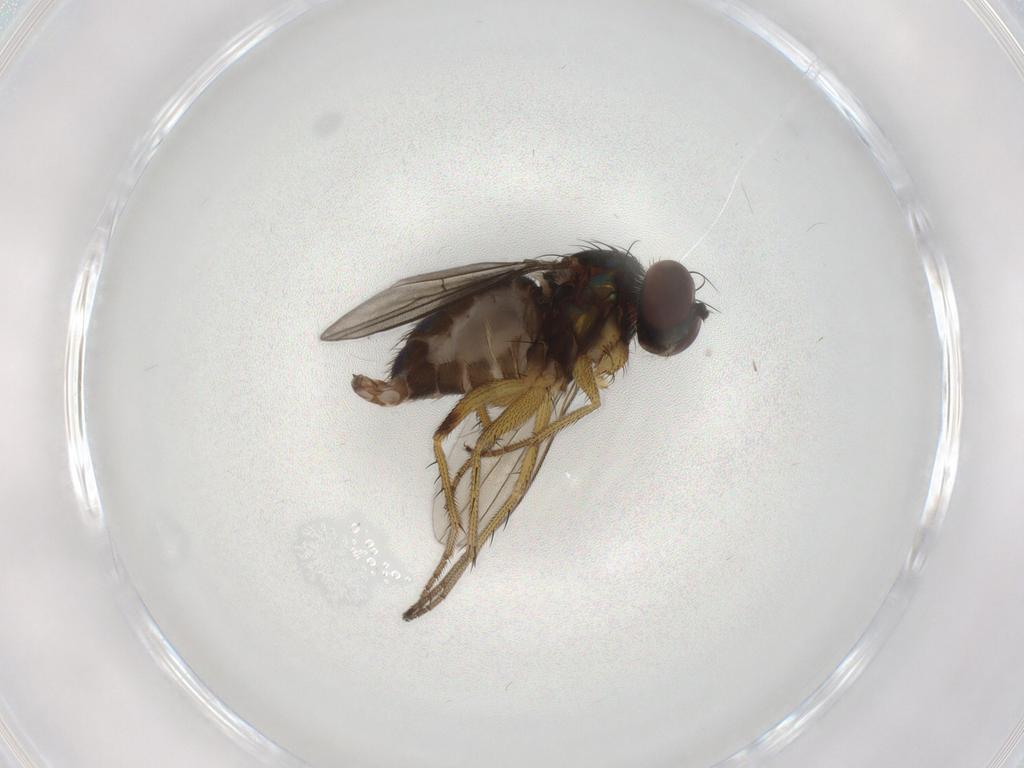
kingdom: Animalia
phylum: Arthropoda
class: Insecta
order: Diptera
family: Dolichopodidae
